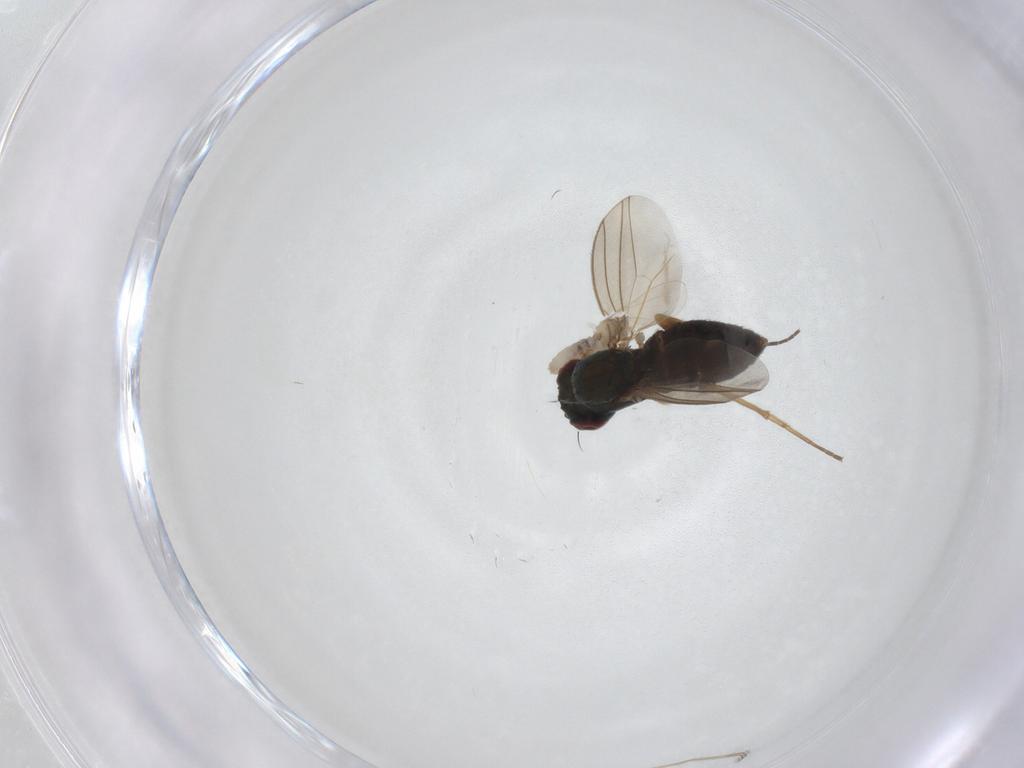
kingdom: Animalia
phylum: Arthropoda
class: Insecta
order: Diptera
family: Dolichopodidae
